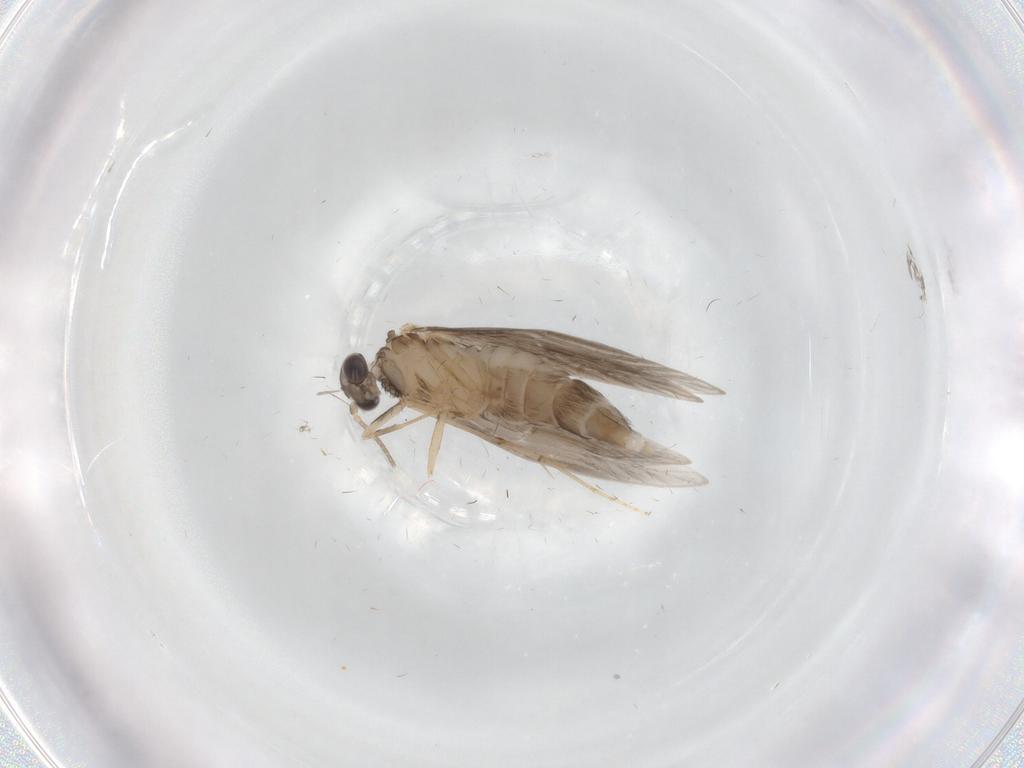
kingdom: Animalia
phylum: Arthropoda
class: Insecta
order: Trichoptera
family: Hydroptilidae
